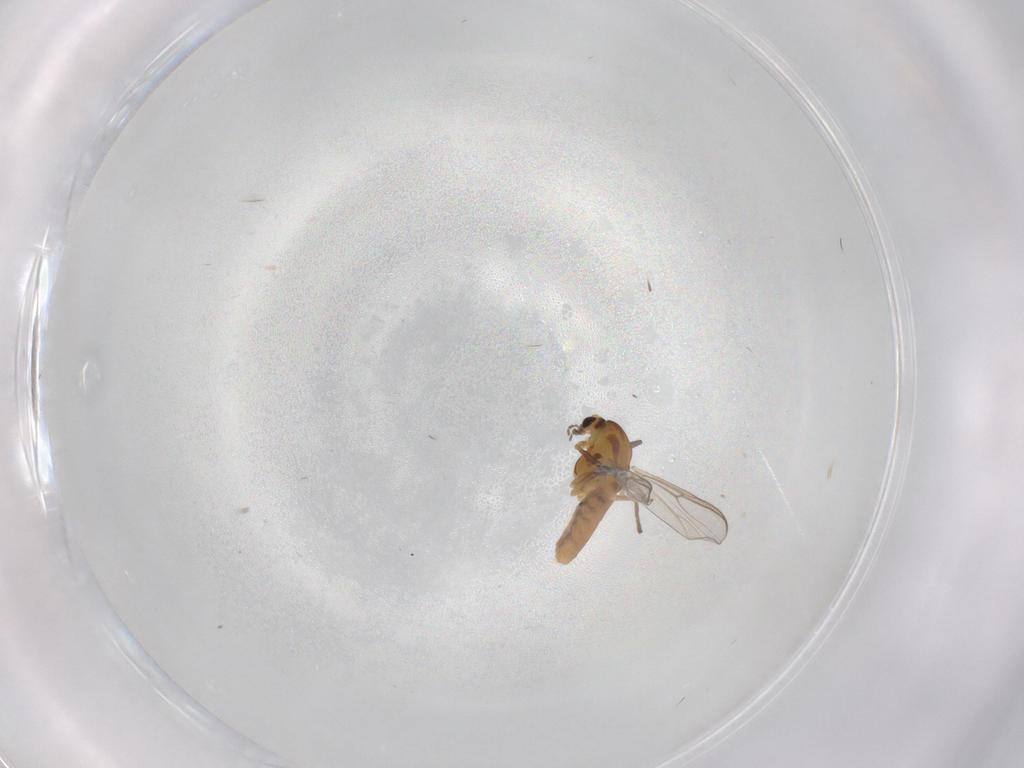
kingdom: Animalia
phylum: Arthropoda
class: Insecta
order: Diptera
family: Chironomidae
